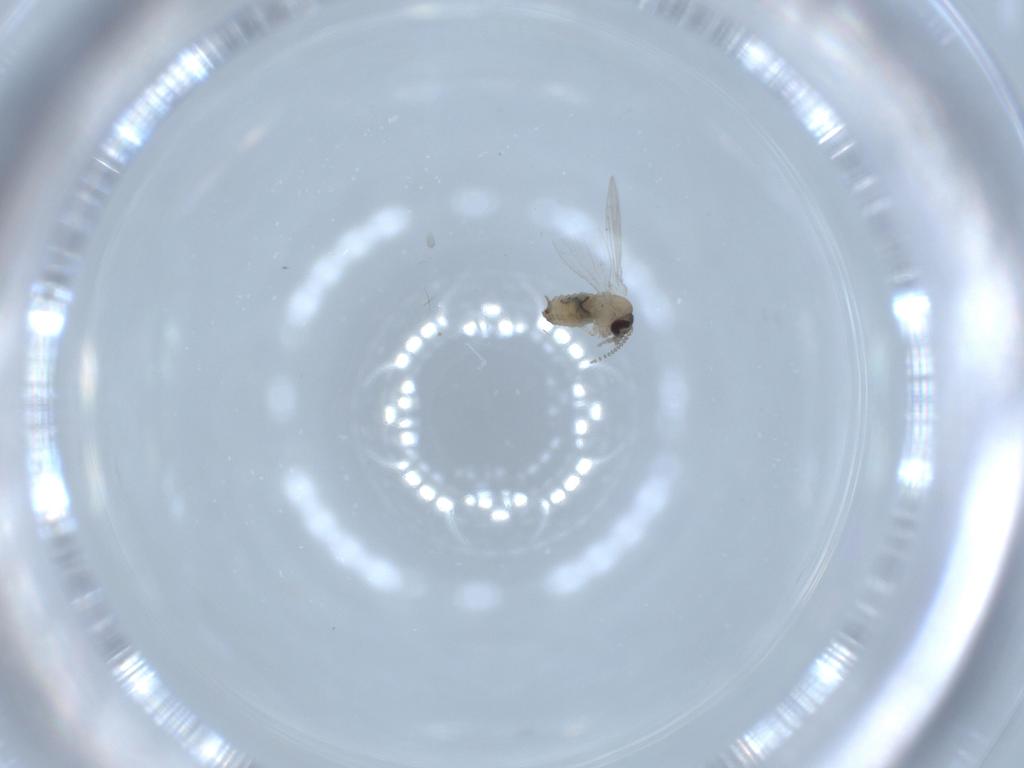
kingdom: Animalia
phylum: Arthropoda
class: Insecta
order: Diptera
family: Psychodidae
